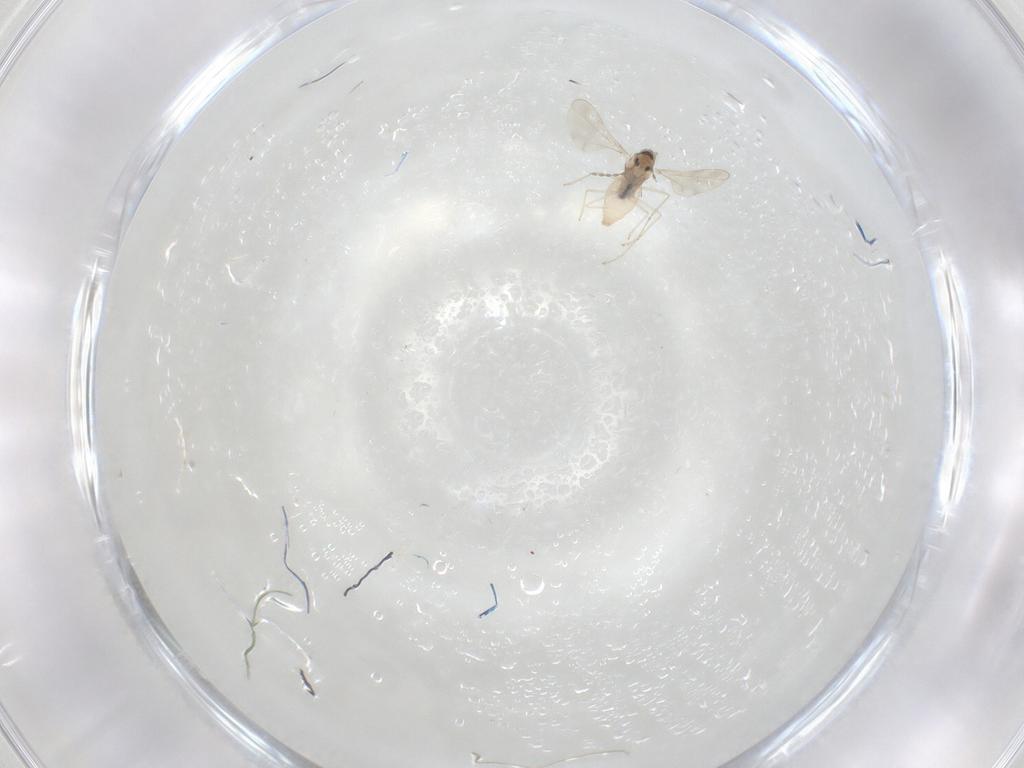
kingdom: Animalia
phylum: Arthropoda
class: Insecta
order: Diptera
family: Cecidomyiidae
